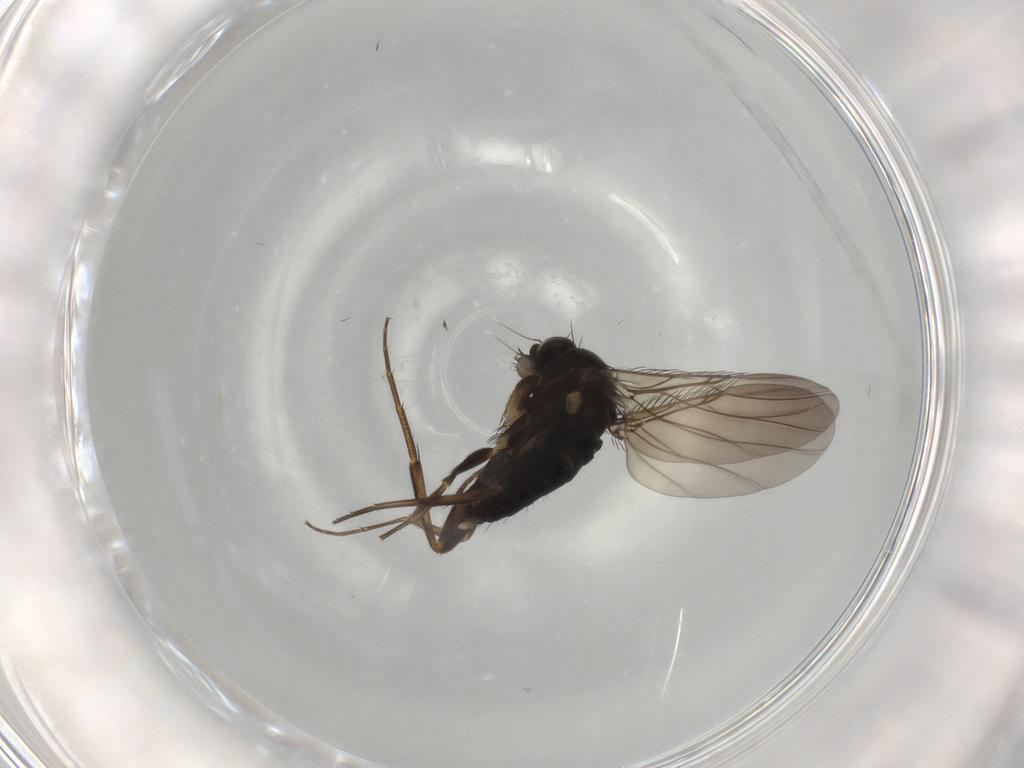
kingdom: Animalia
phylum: Arthropoda
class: Insecta
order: Diptera
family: Phoridae
